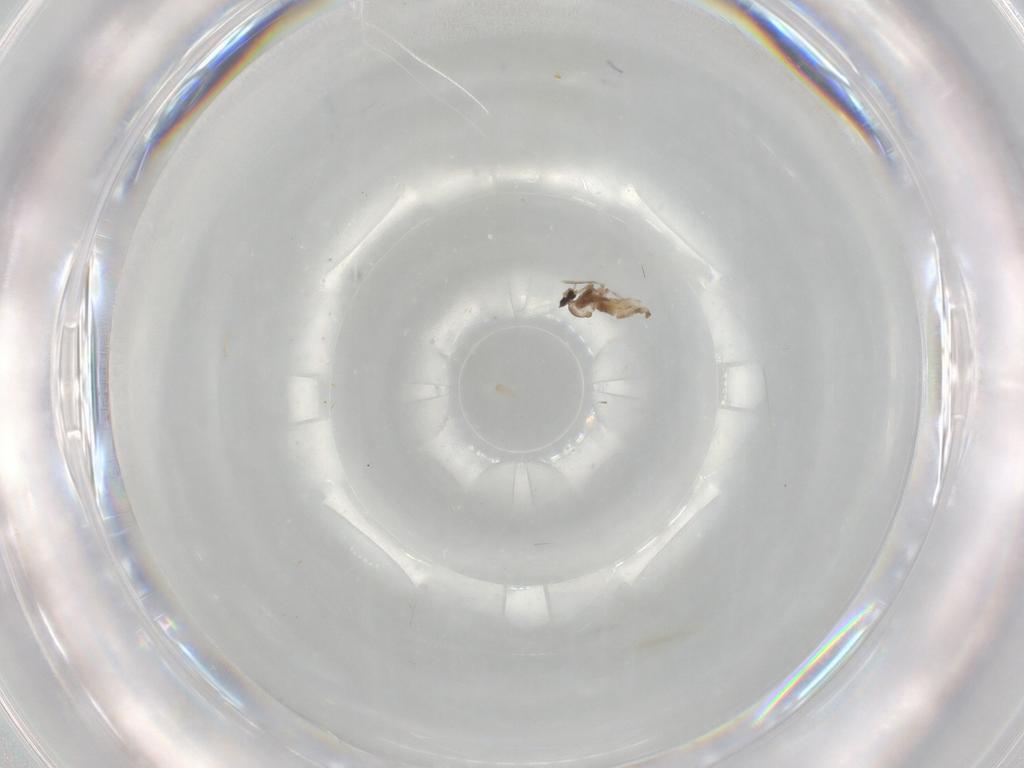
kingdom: Animalia
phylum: Arthropoda
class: Insecta
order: Diptera
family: Cecidomyiidae
